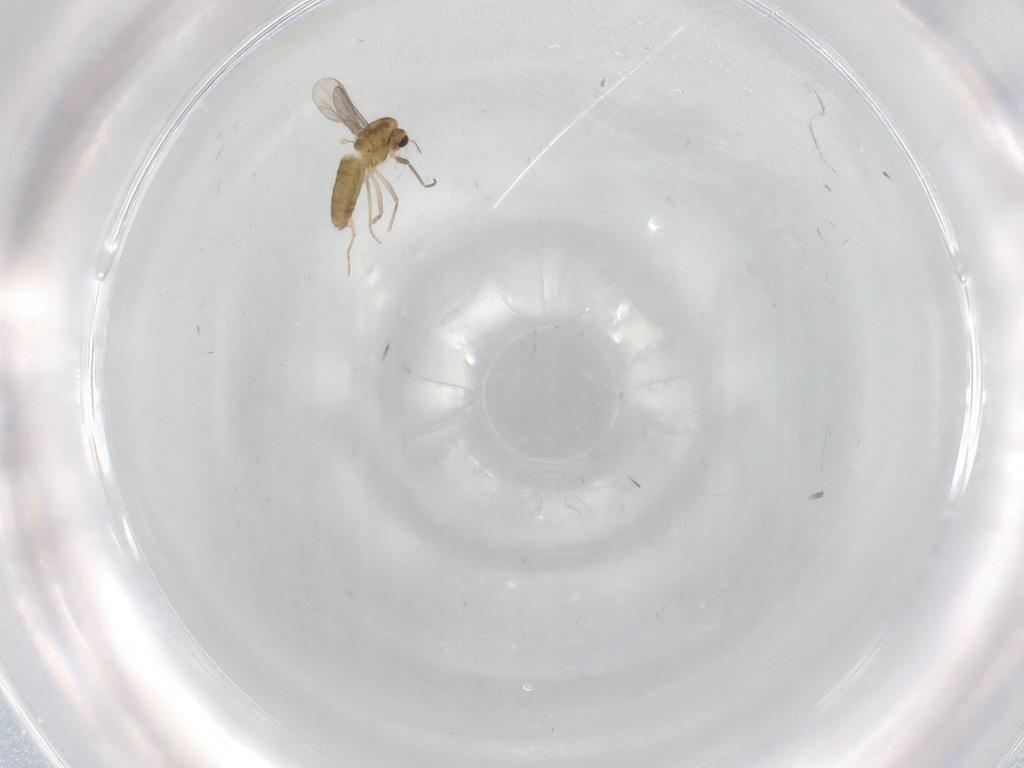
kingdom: Animalia
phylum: Arthropoda
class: Insecta
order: Diptera
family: Chironomidae
